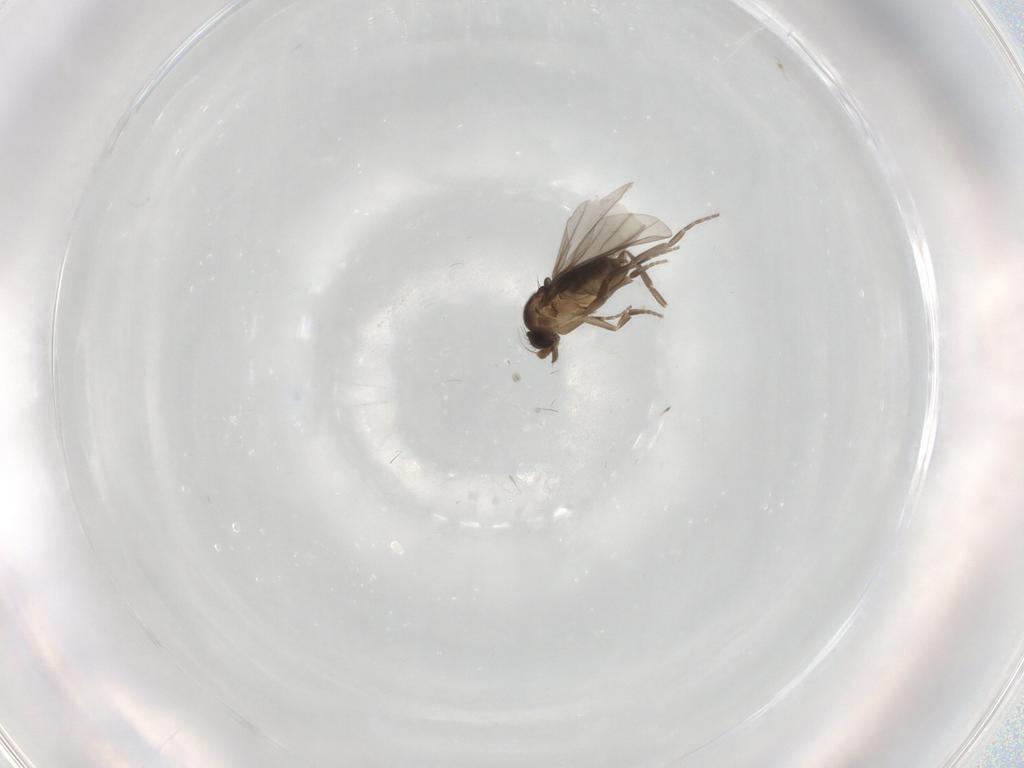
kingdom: Animalia
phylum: Arthropoda
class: Insecta
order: Diptera
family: Phoridae
